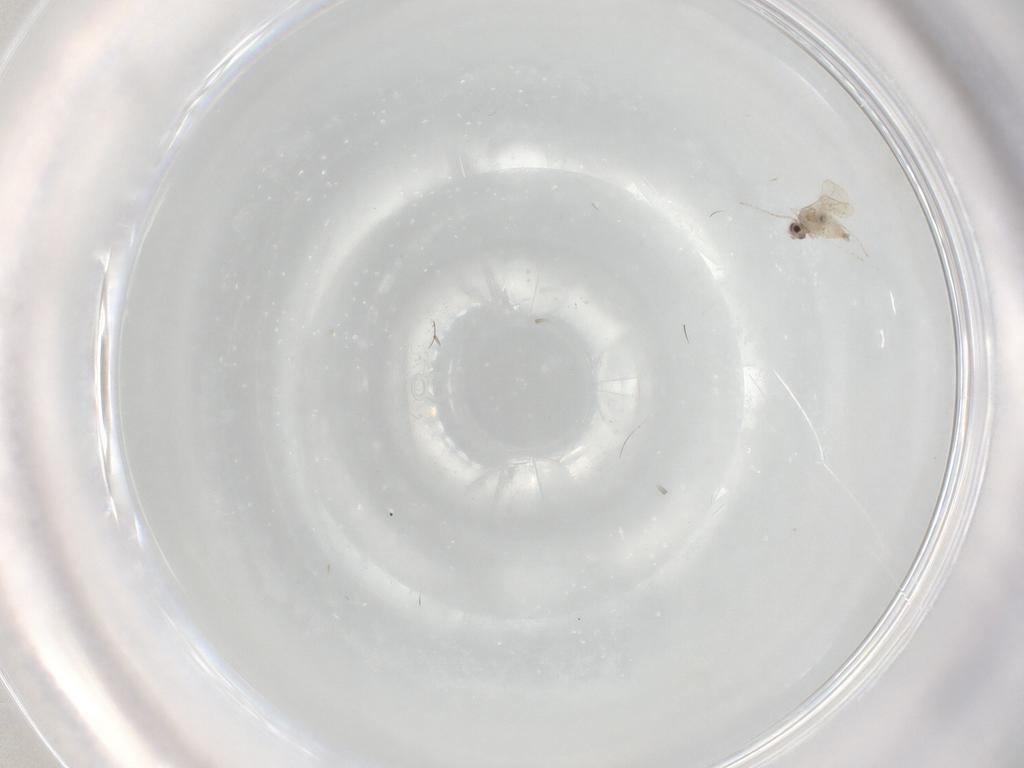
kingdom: Animalia
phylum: Arthropoda
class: Insecta
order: Diptera
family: Cecidomyiidae
